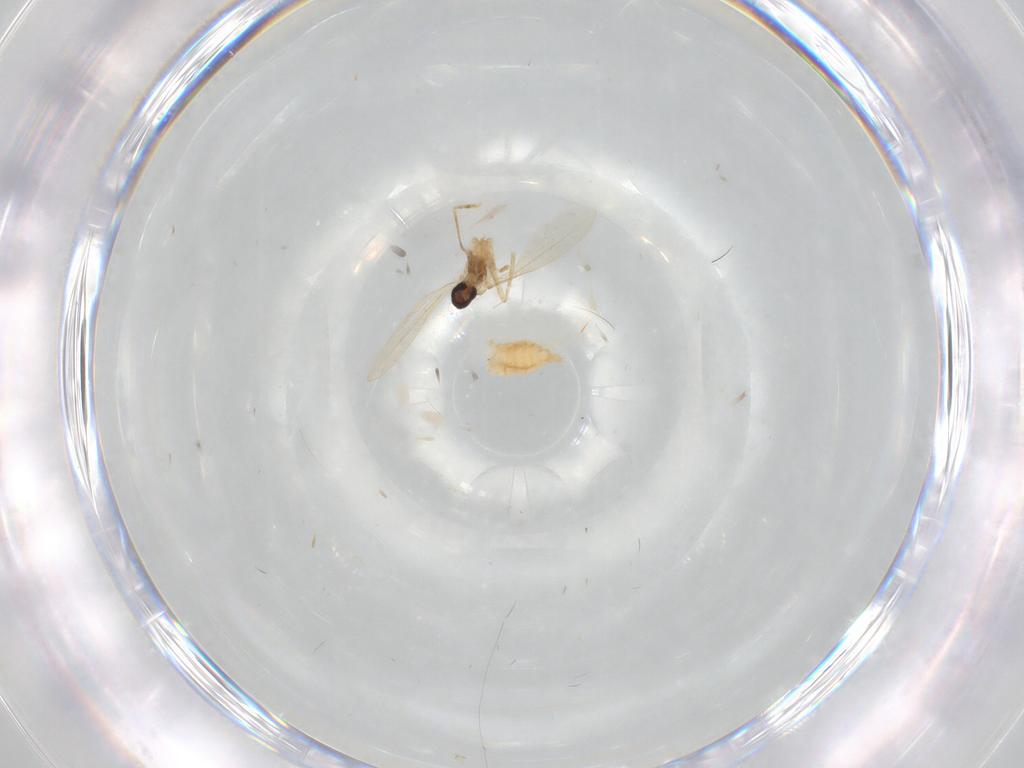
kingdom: Animalia
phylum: Arthropoda
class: Insecta
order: Diptera
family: Cecidomyiidae
